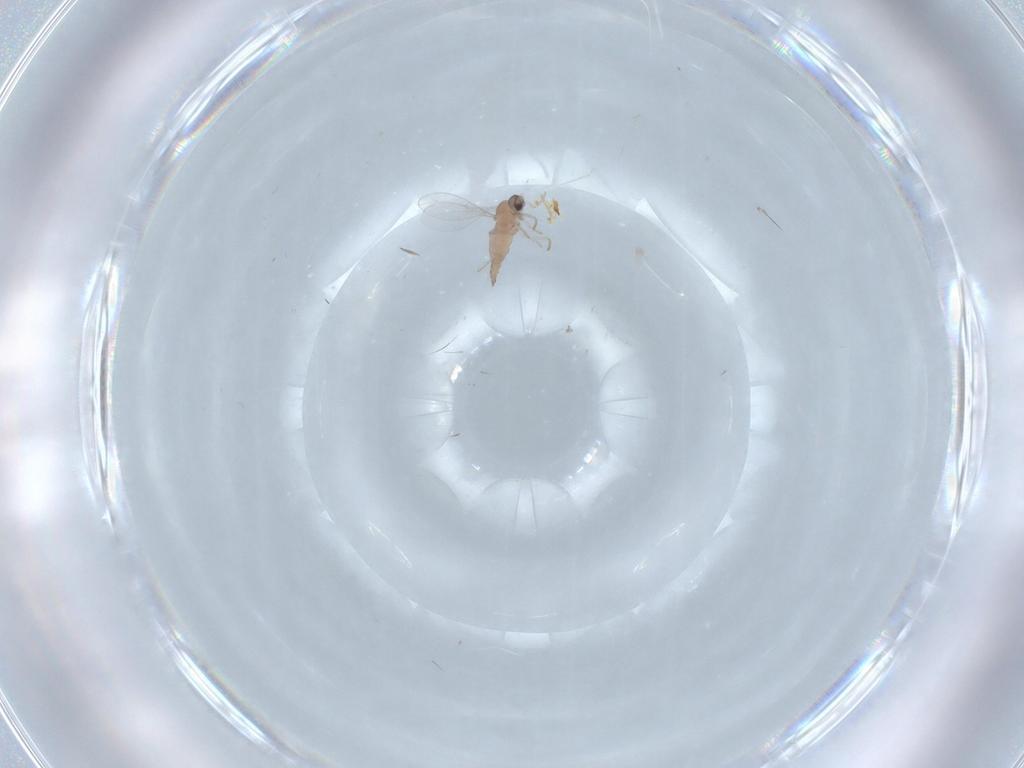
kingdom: Animalia
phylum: Arthropoda
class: Insecta
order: Diptera
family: Cecidomyiidae
